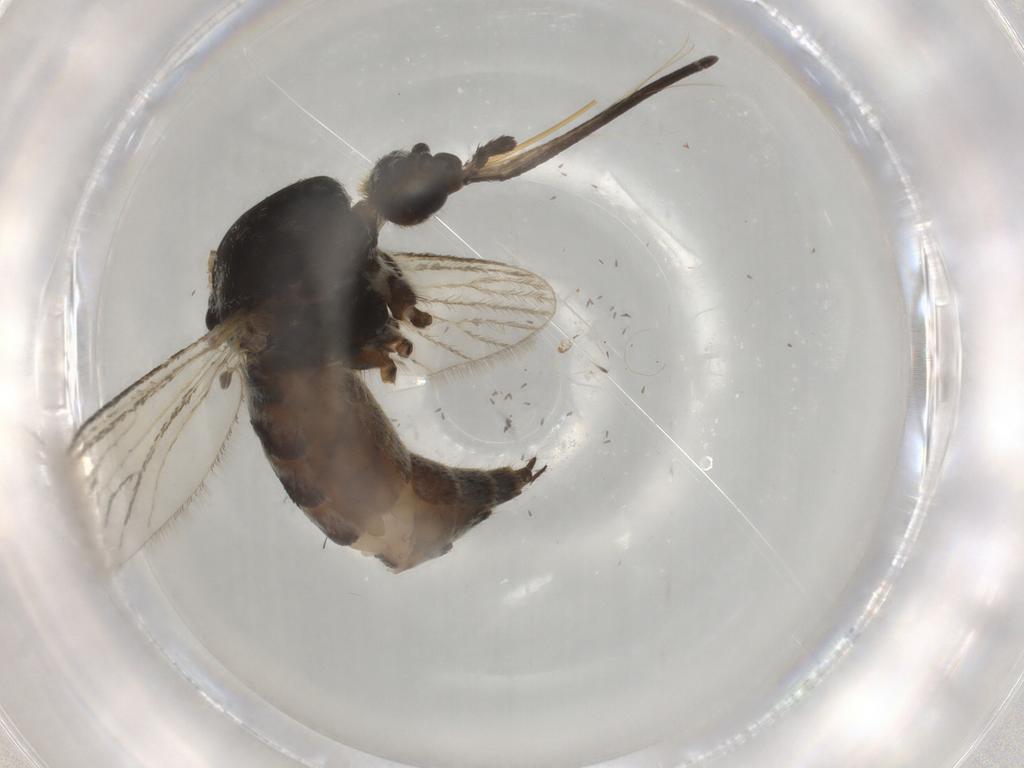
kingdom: Animalia
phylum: Arthropoda
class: Insecta
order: Diptera
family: Culicidae
